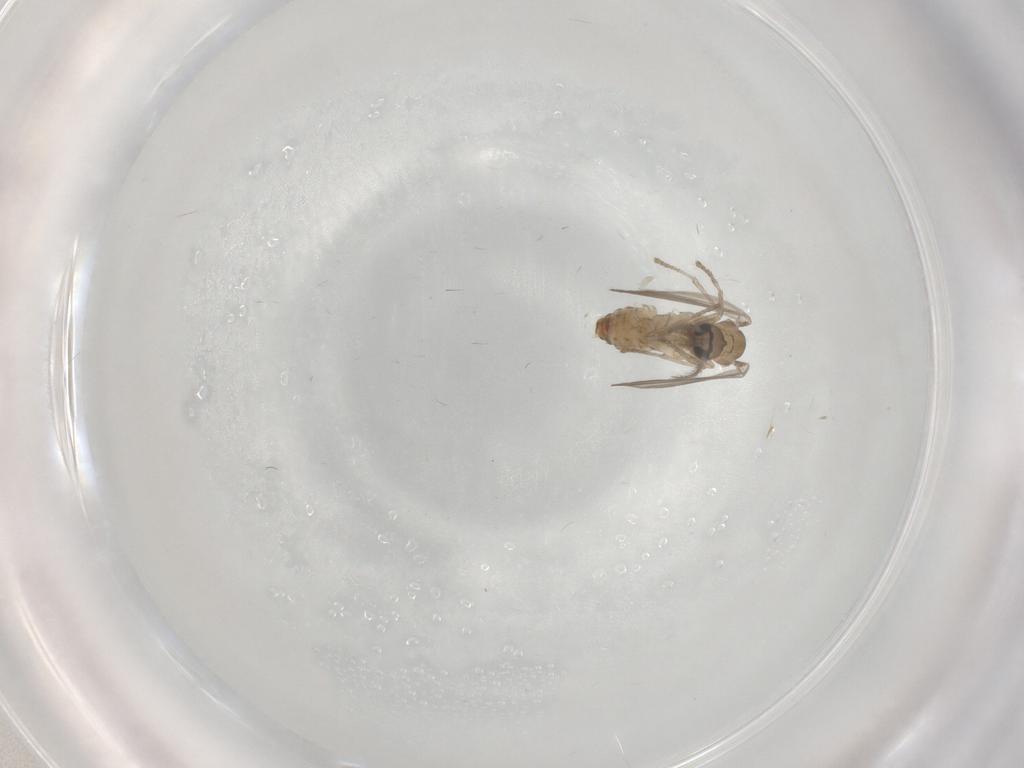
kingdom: Animalia
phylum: Arthropoda
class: Insecta
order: Diptera
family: Psychodidae
